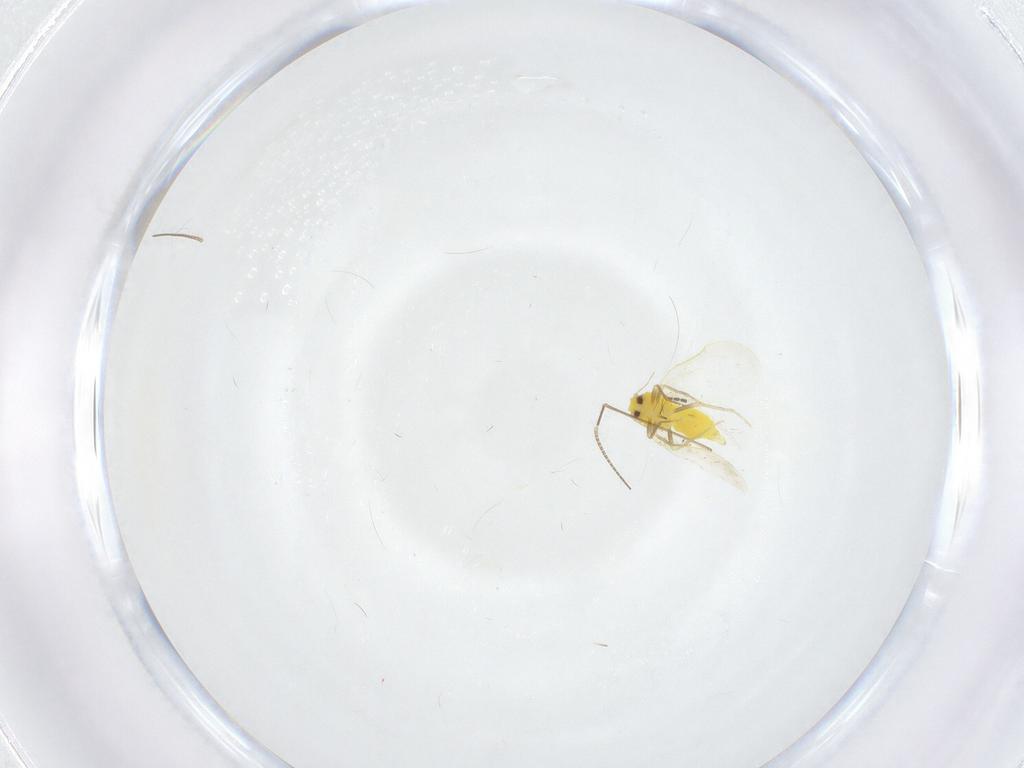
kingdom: Animalia
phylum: Arthropoda
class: Insecta
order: Hemiptera
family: Aleyrodidae
